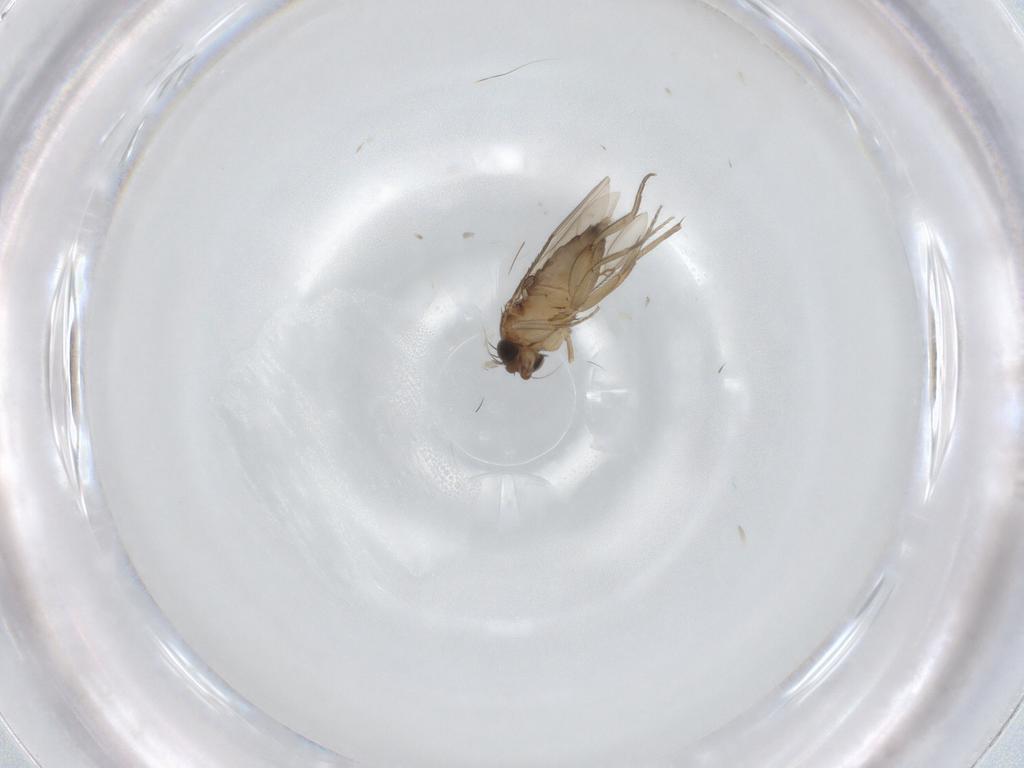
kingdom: Animalia
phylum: Arthropoda
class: Insecta
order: Diptera
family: Phoridae
